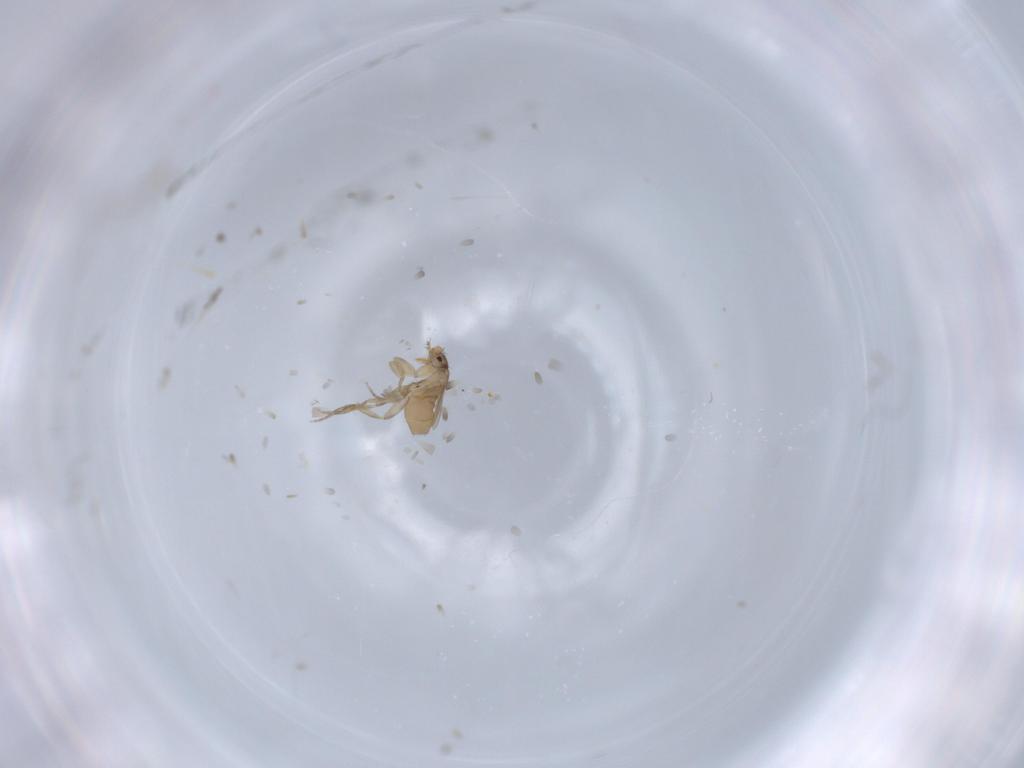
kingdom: Animalia
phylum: Arthropoda
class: Insecta
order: Diptera
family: Phoridae
